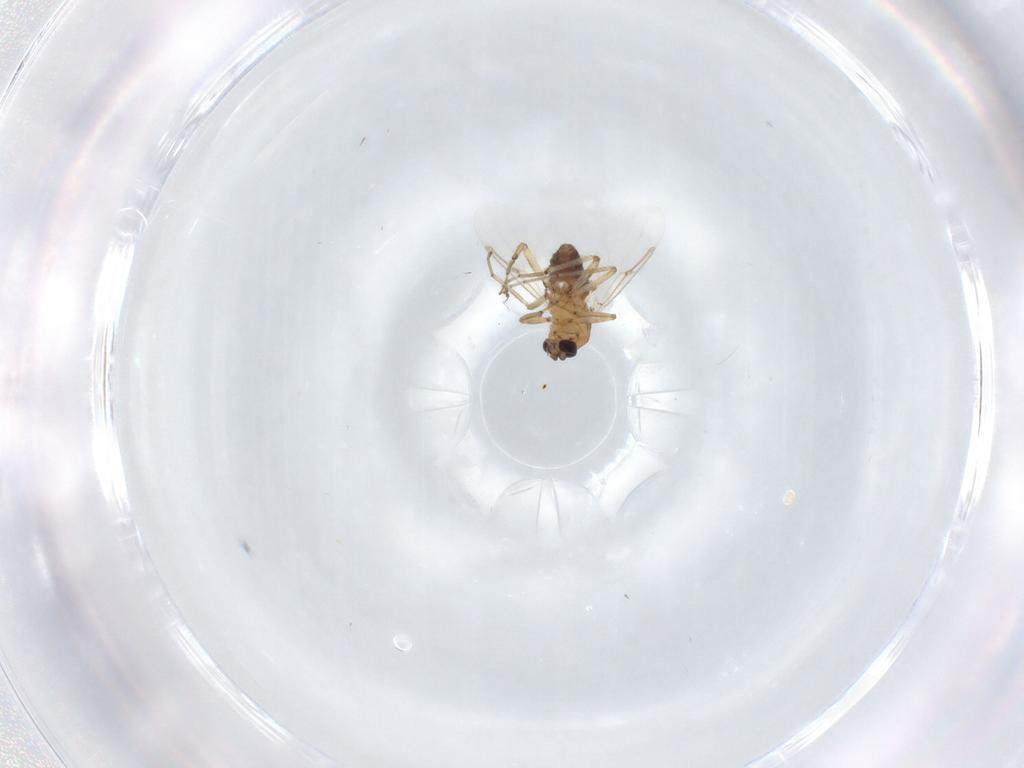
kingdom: Animalia
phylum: Arthropoda
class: Insecta
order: Diptera
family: Ceratopogonidae
